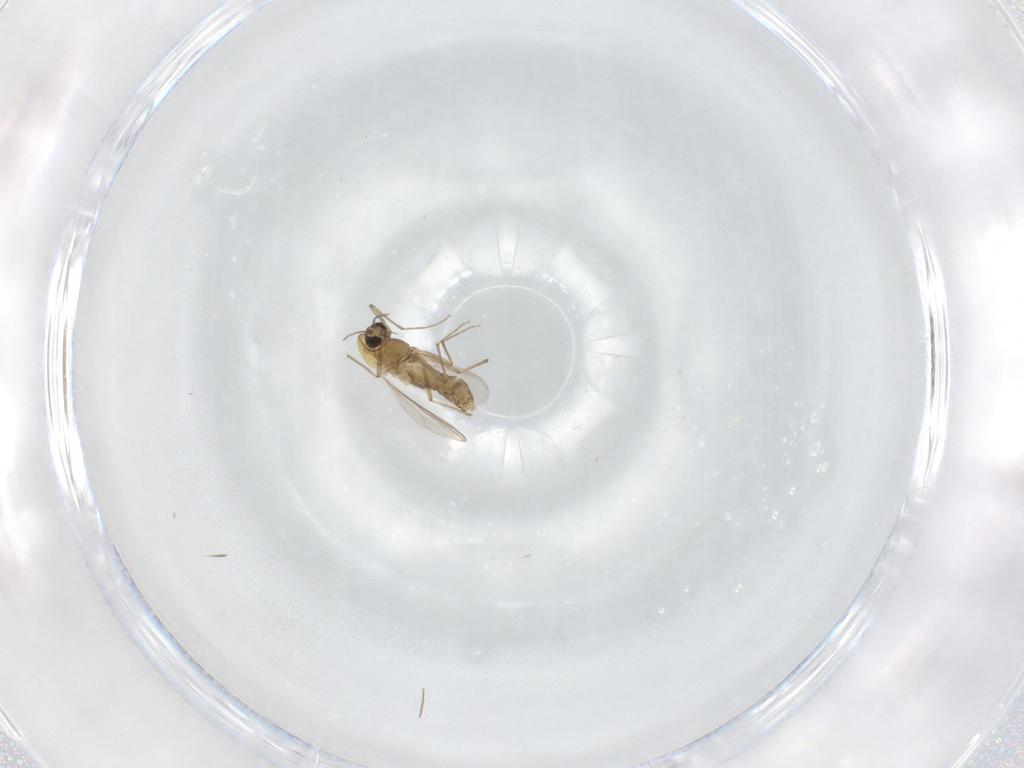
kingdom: Animalia
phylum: Arthropoda
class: Insecta
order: Diptera
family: Chironomidae
